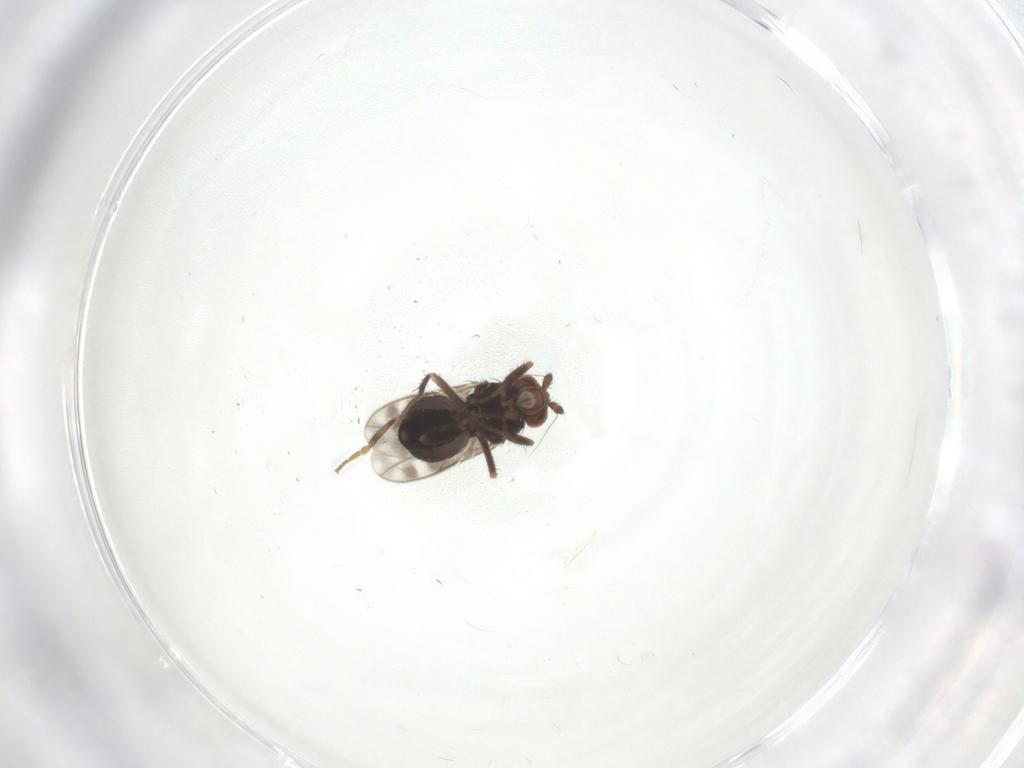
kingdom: Animalia
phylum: Arthropoda
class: Insecta
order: Diptera
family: Sphaeroceridae
